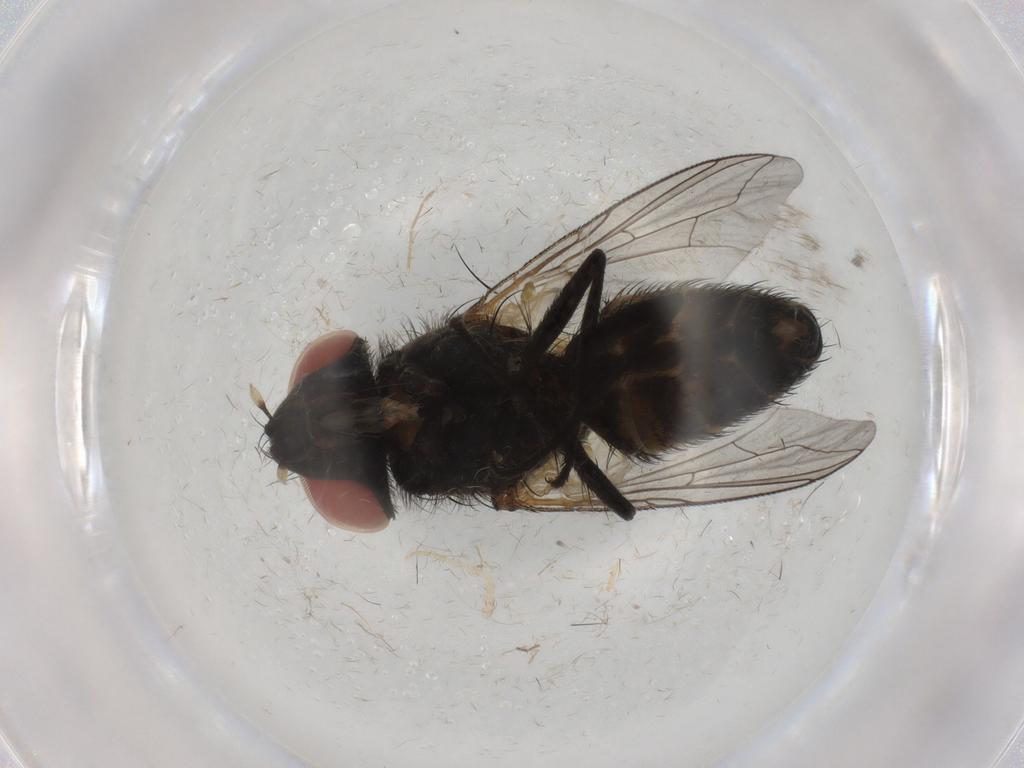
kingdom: Animalia
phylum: Arthropoda
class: Insecta
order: Diptera
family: Sarcophagidae
